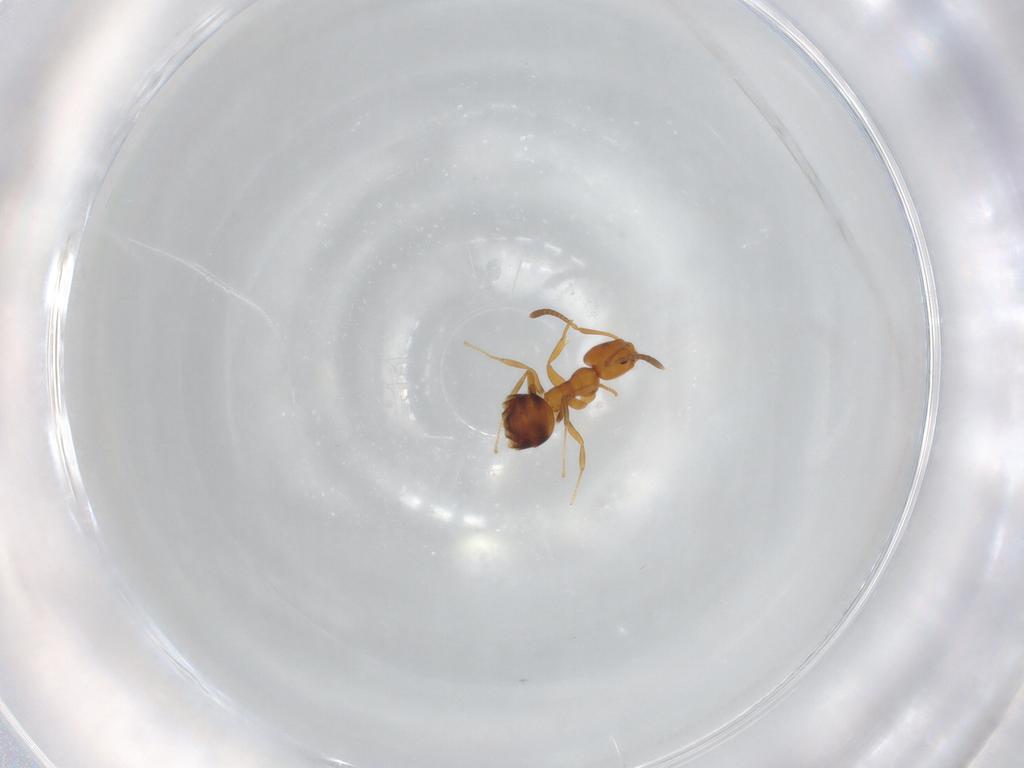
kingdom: Animalia
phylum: Arthropoda
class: Insecta
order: Hymenoptera
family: Formicidae
